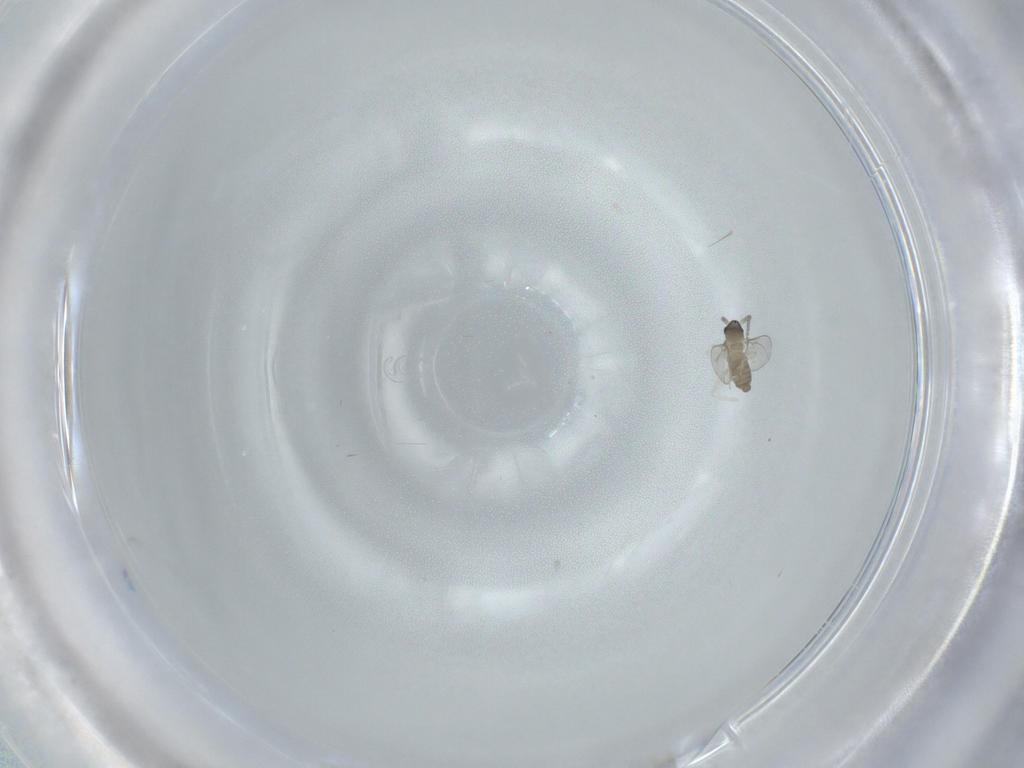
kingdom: Animalia
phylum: Arthropoda
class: Insecta
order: Diptera
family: Cecidomyiidae
